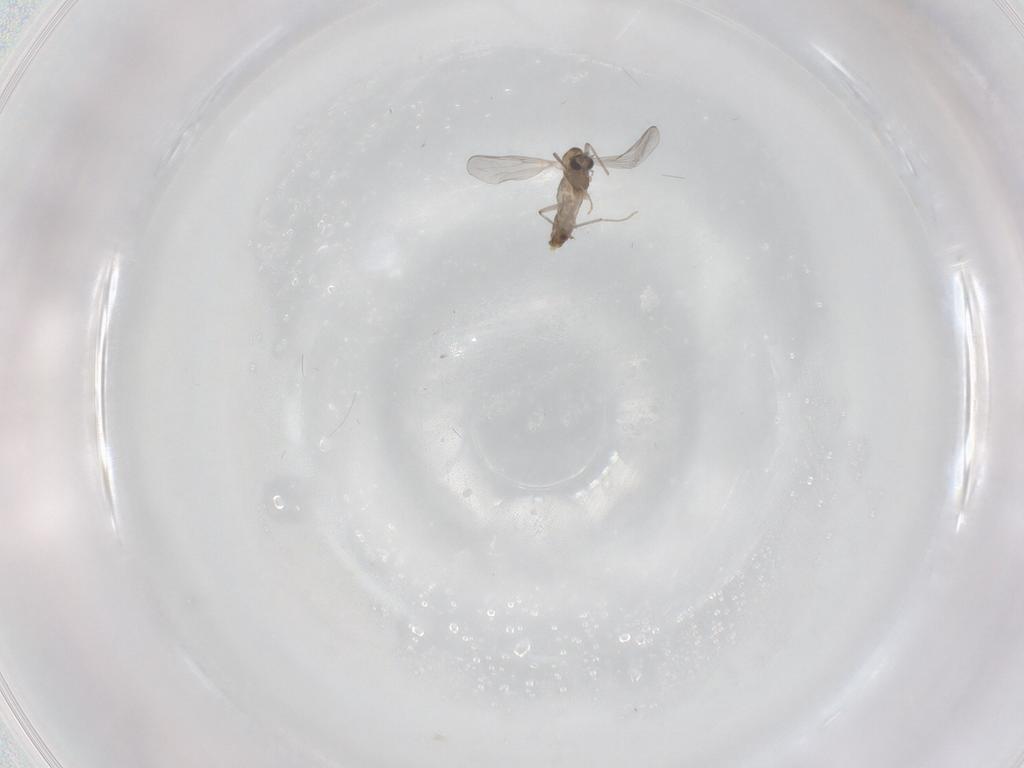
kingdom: Animalia
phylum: Arthropoda
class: Insecta
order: Diptera
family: Chironomidae
